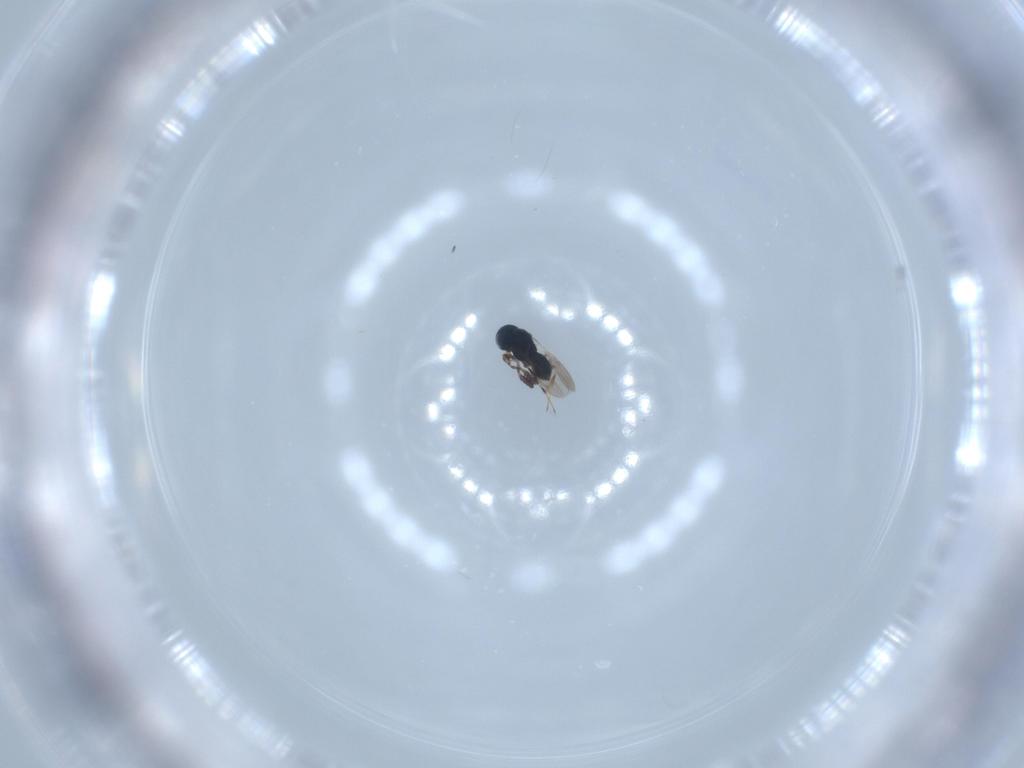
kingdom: Animalia
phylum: Arthropoda
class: Insecta
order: Hymenoptera
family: Scelionidae
